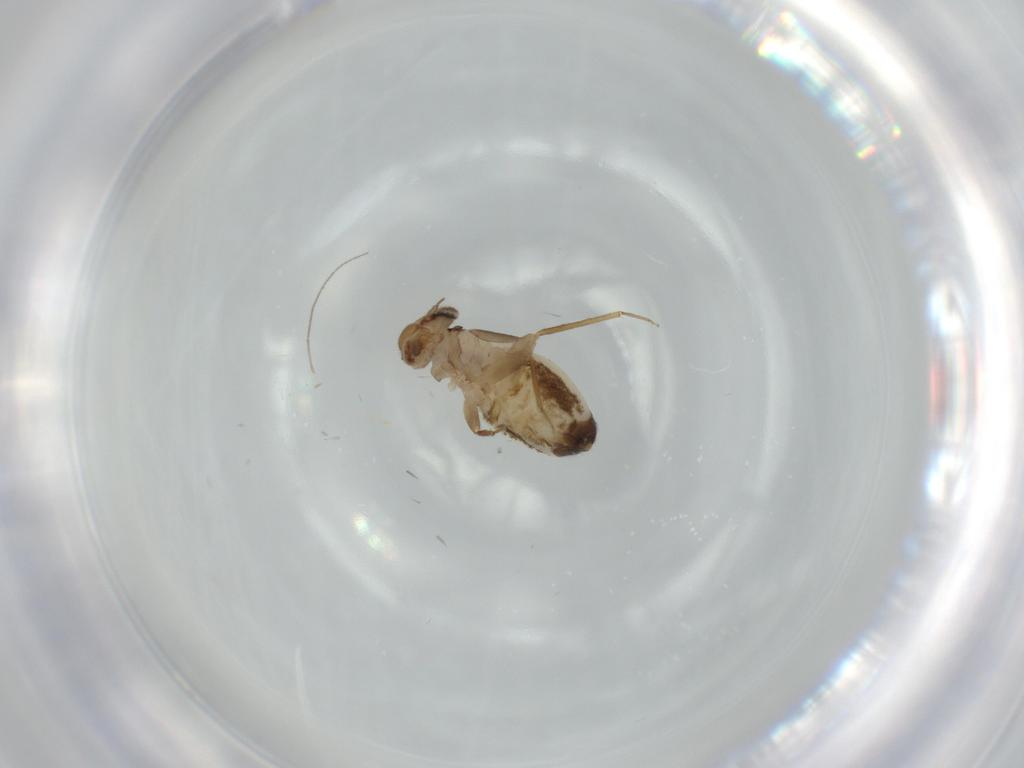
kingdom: Animalia
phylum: Arthropoda
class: Insecta
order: Psocodea
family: Lachesillidae
